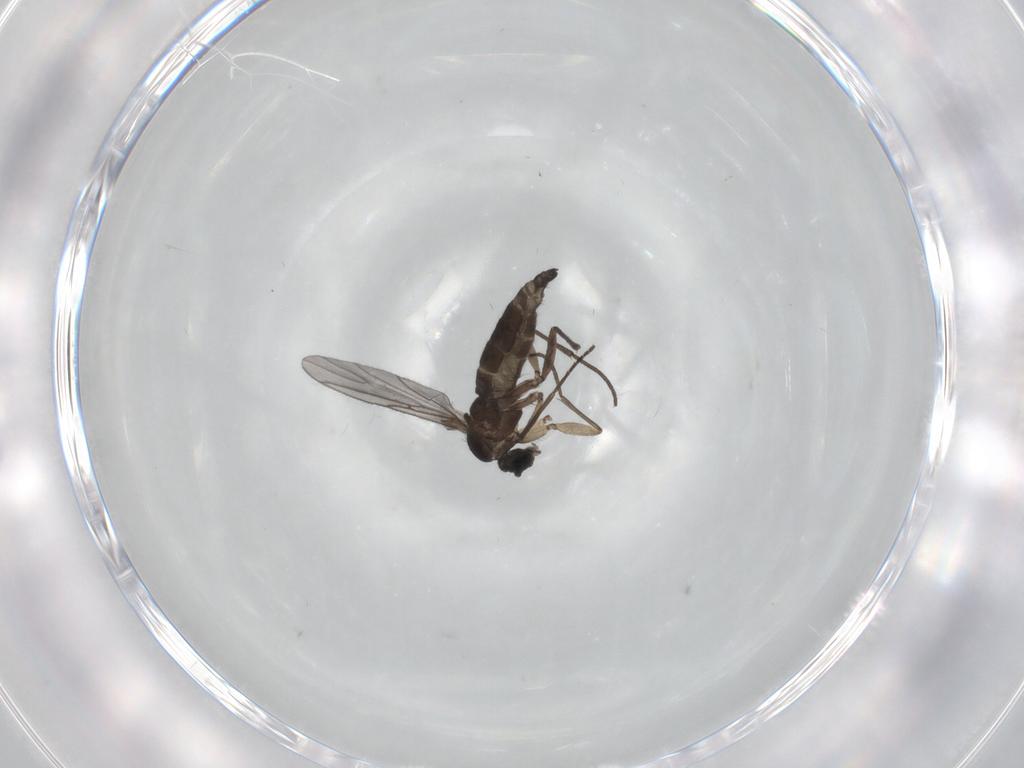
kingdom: Animalia
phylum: Arthropoda
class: Insecta
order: Diptera
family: Sciaridae
